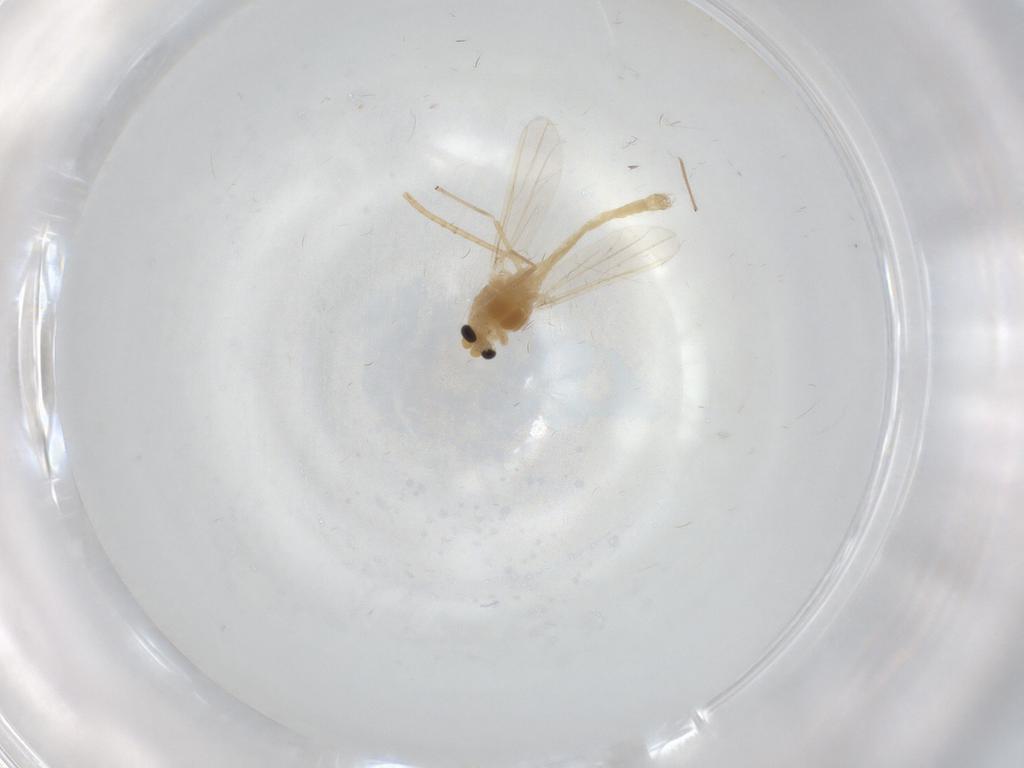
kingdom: Animalia
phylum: Arthropoda
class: Insecta
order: Diptera
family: Chironomidae
